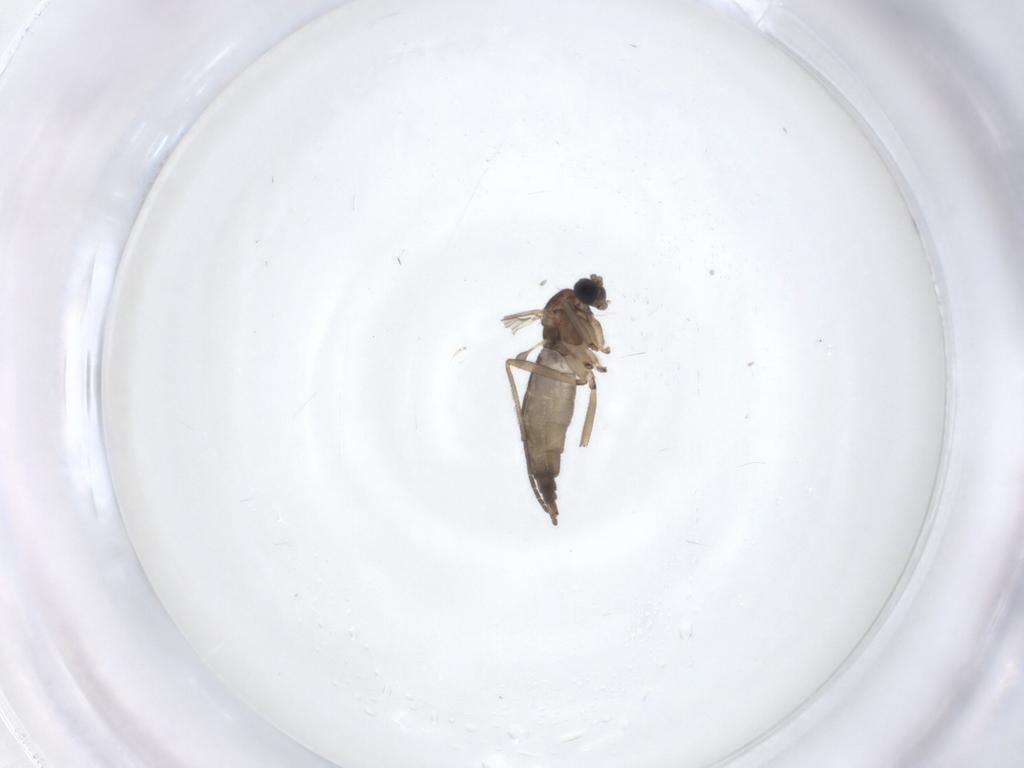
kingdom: Animalia
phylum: Arthropoda
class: Insecta
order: Diptera
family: Sciaridae
